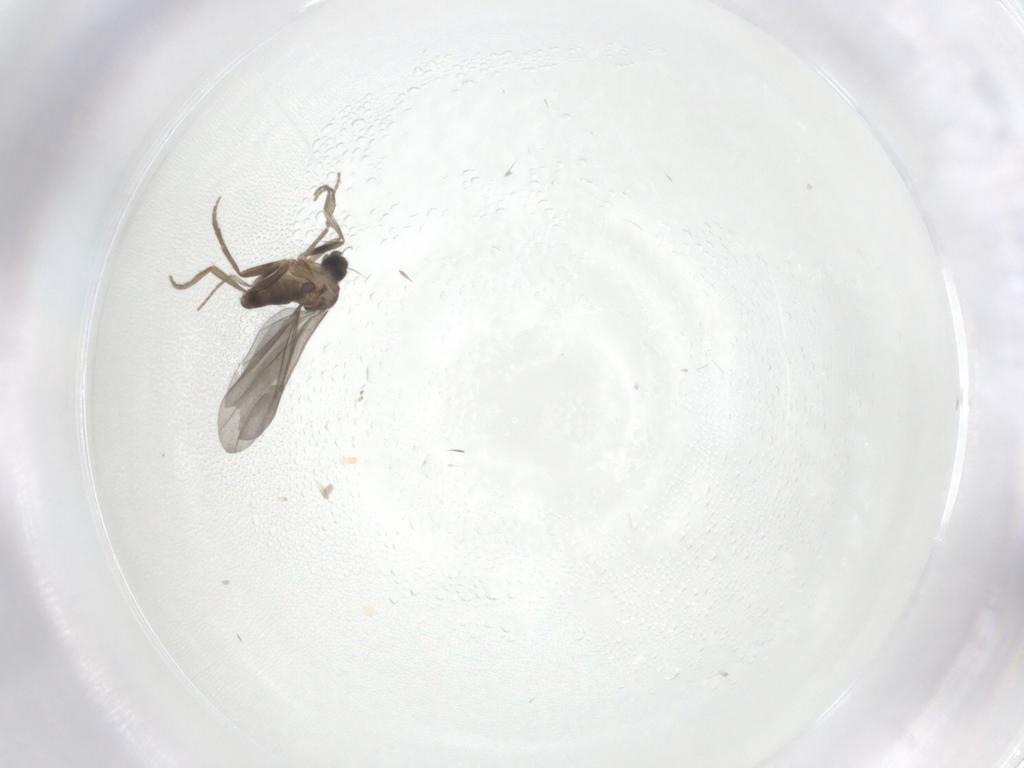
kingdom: Animalia
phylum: Arthropoda
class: Insecta
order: Diptera
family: Phoridae
